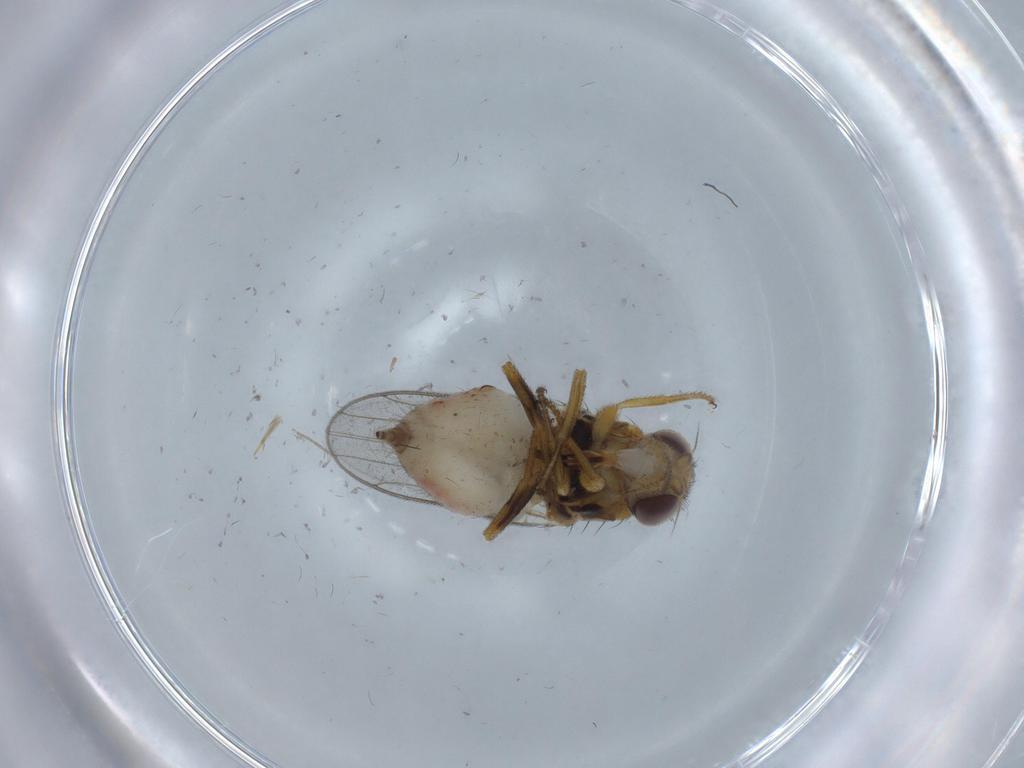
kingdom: Animalia
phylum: Arthropoda
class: Insecta
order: Diptera
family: Chloropidae
